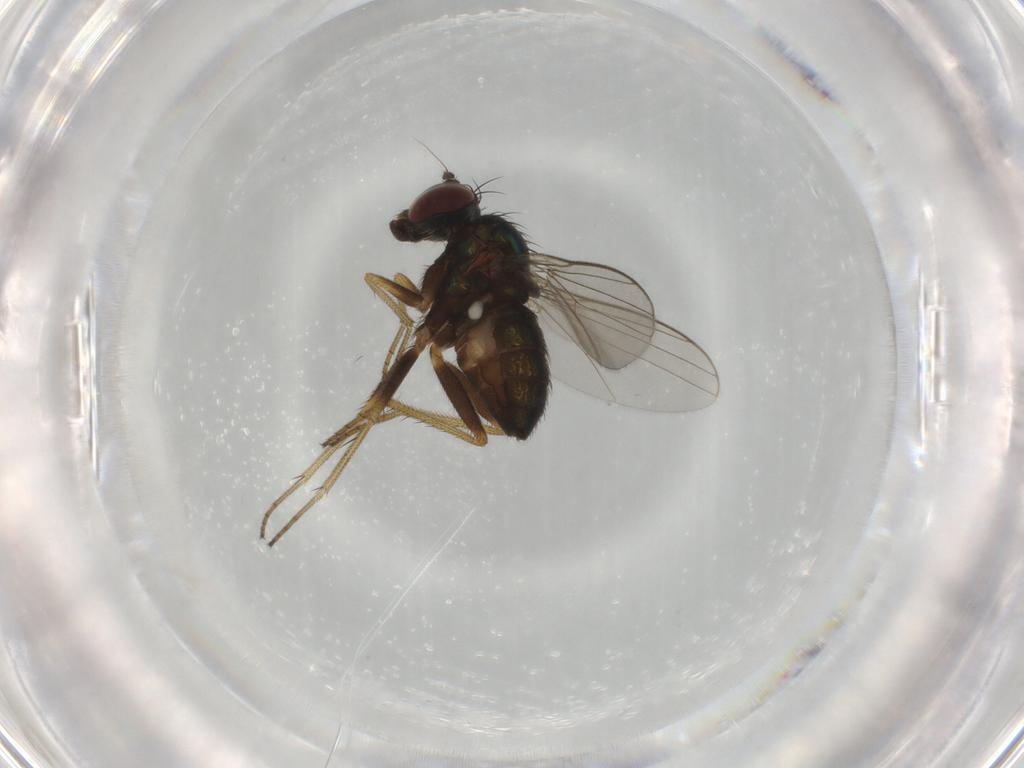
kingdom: Animalia
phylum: Arthropoda
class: Insecta
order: Diptera
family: Dolichopodidae
